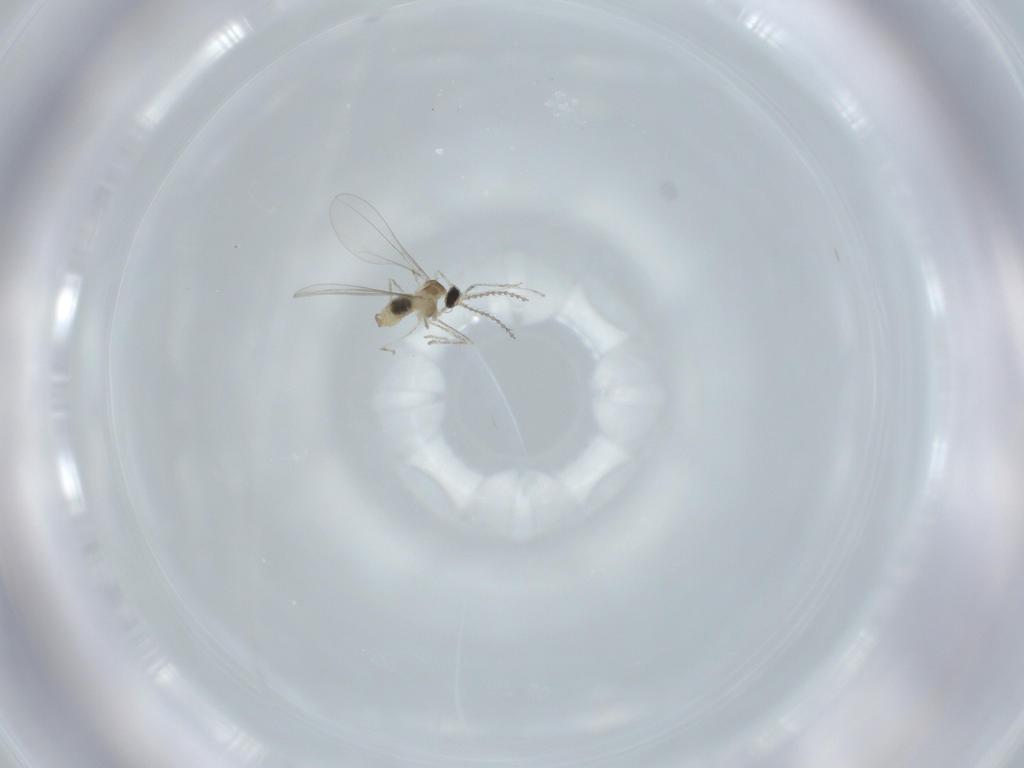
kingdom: Animalia
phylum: Arthropoda
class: Insecta
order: Diptera
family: Cecidomyiidae
